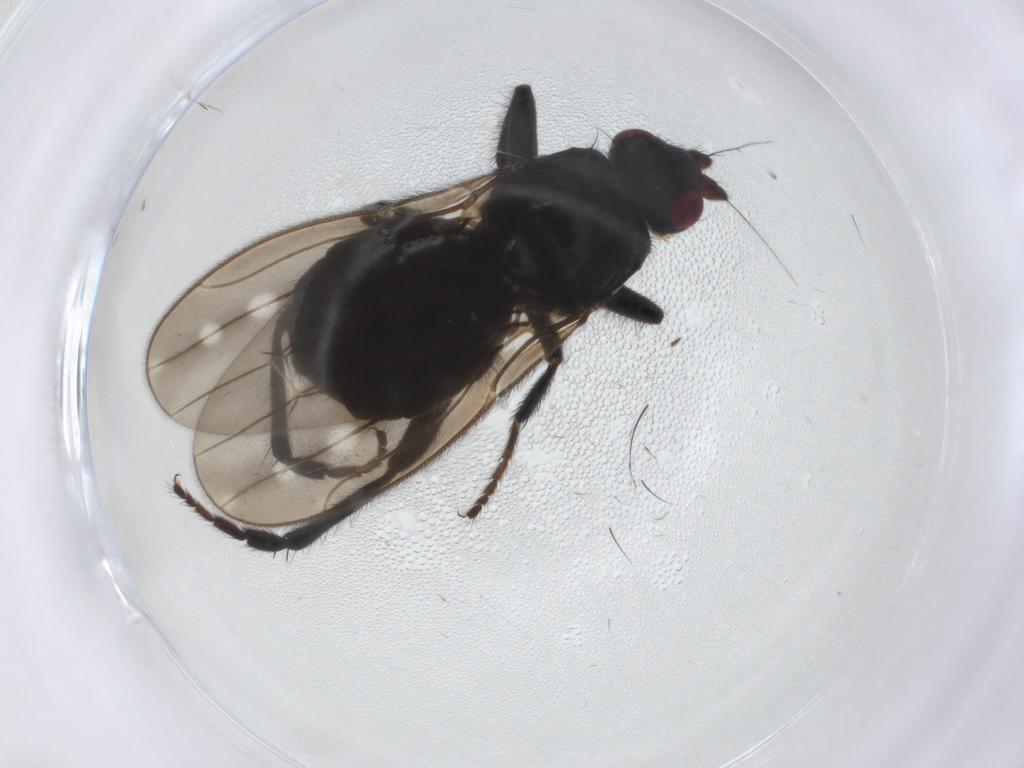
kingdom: Animalia
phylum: Arthropoda
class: Insecta
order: Diptera
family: Sphaeroceridae
